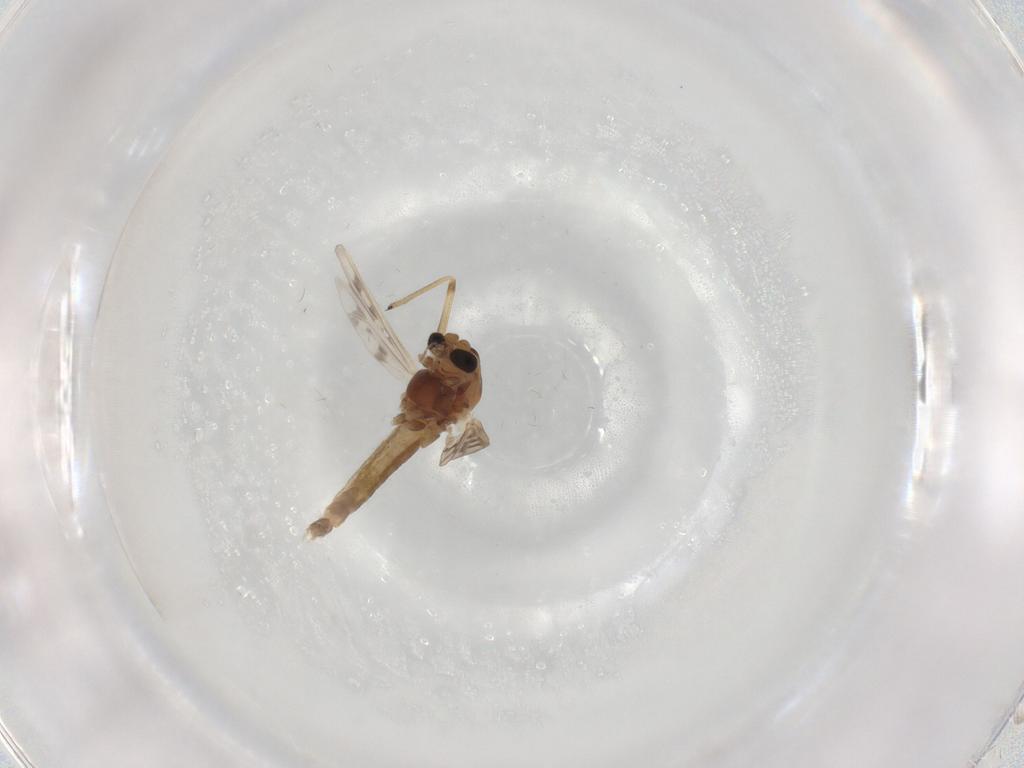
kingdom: Animalia
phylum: Arthropoda
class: Insecta
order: Diptera
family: Chironomidae
